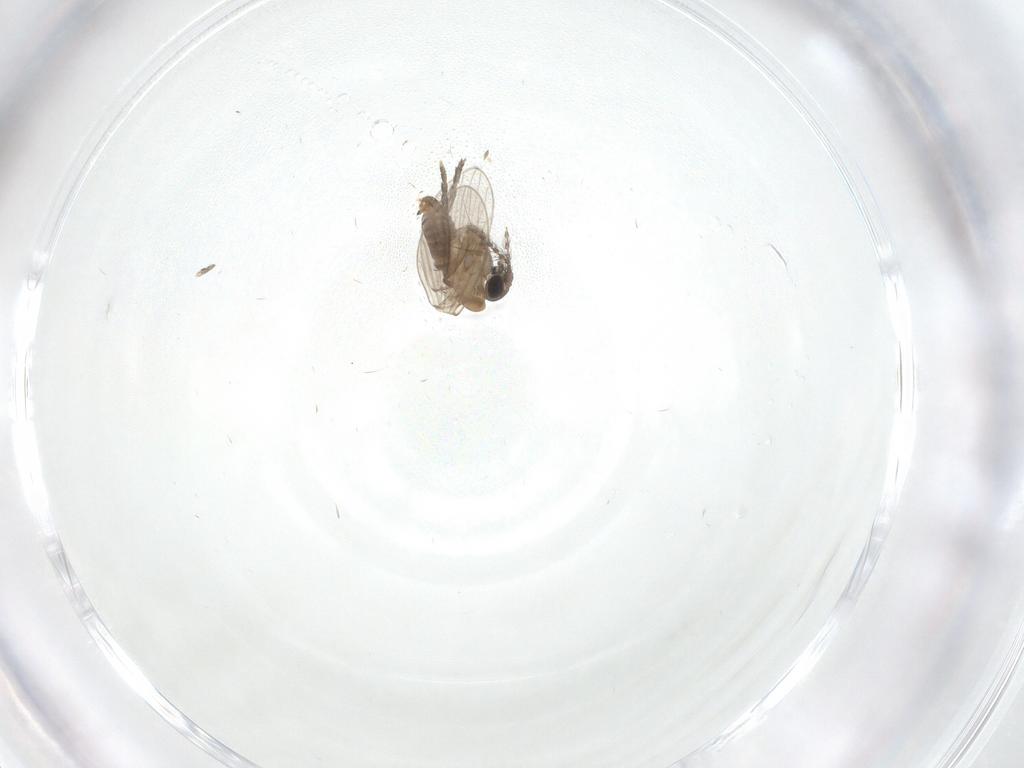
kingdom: Animalia
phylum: Arthropoda
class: Insecta
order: Diptera
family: Psychodidae
